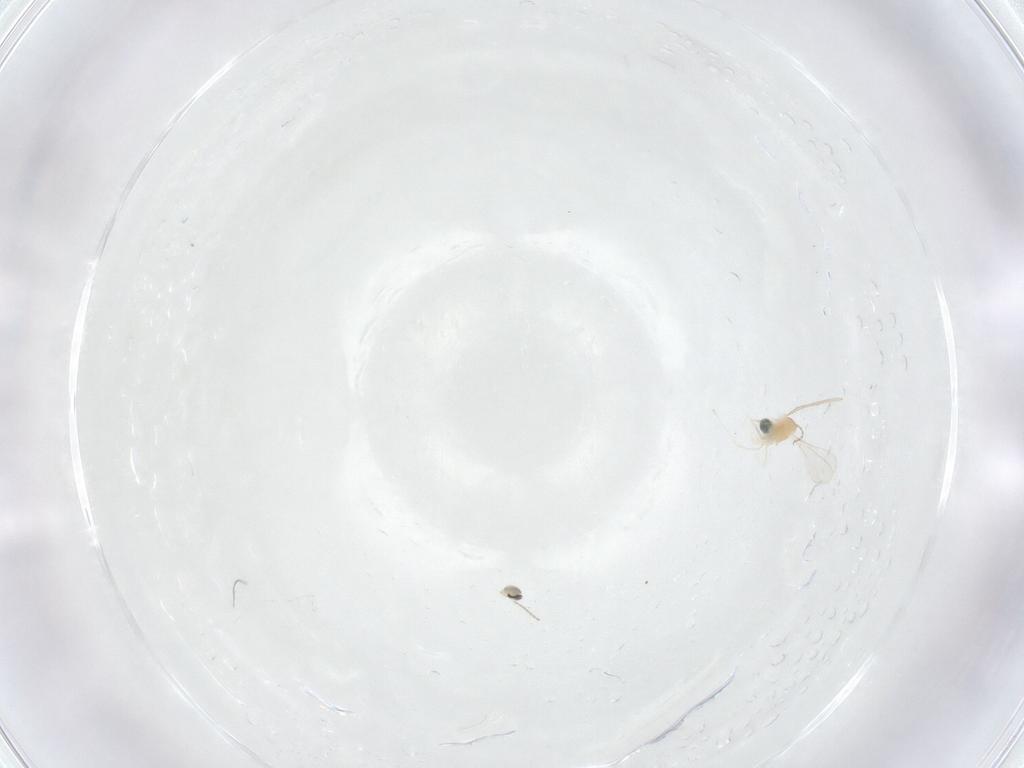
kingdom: Animalia
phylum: Arthropoda
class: Insecta
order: Diptera
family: Cecidomyiidae
